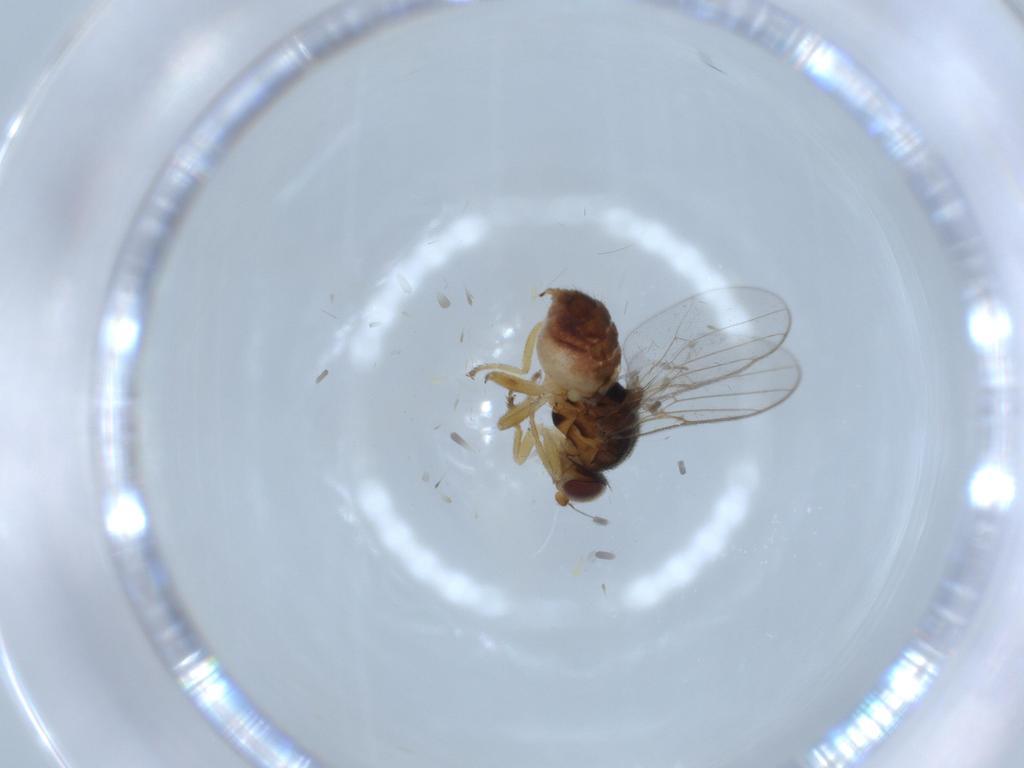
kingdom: Animalia
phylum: Arthropoda
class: Insecta
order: Diptera
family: Chloropidae
